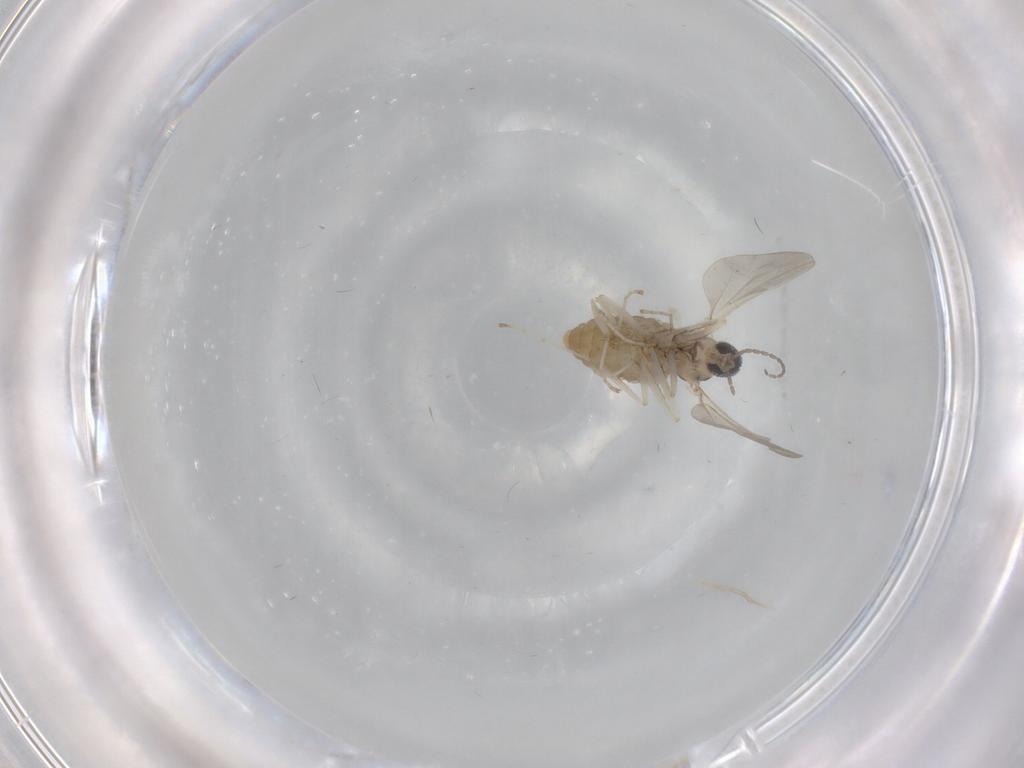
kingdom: Animalia
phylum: Arthropoda
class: Insecta
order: Diptera
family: Cecidomyiidae
